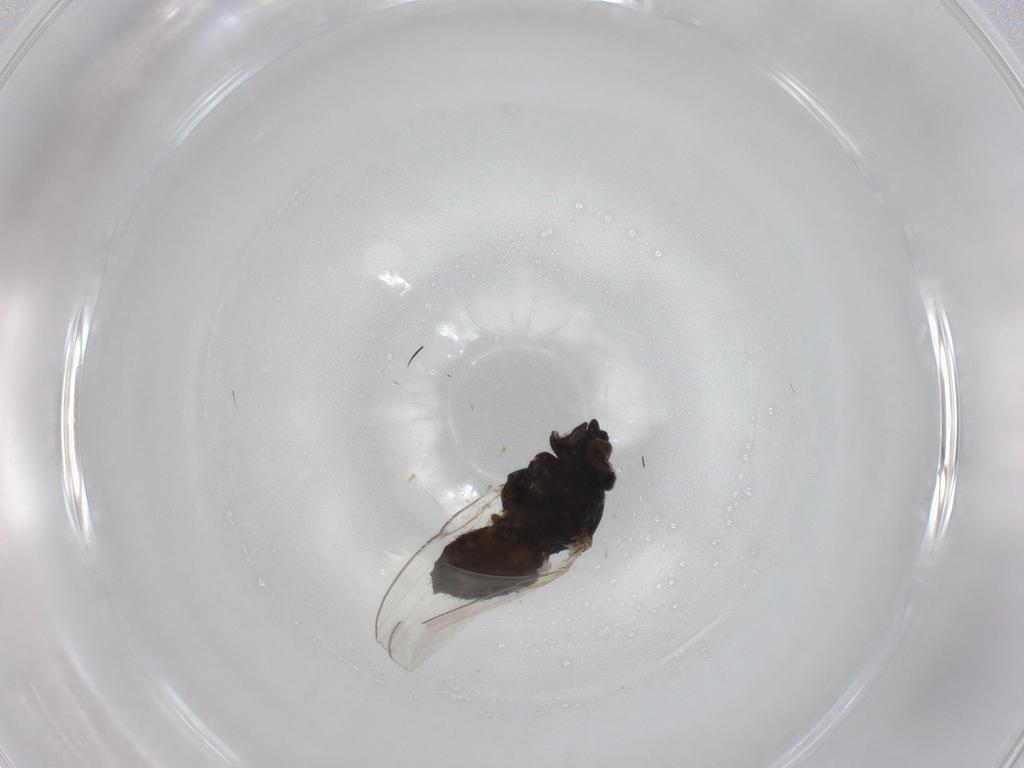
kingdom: Animalia
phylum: Arthropoda
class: Insecta
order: Diptera
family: Milichiidae
